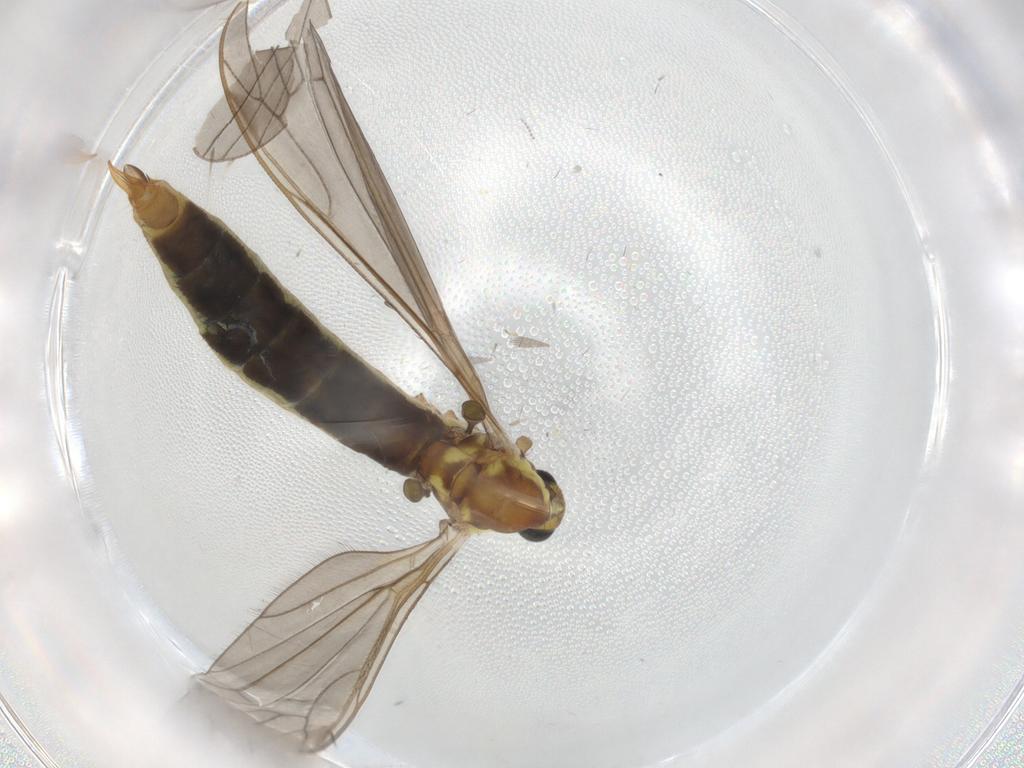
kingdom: Animalia
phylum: Arthropoda
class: Insecta
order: Diptera
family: Limoniidae
